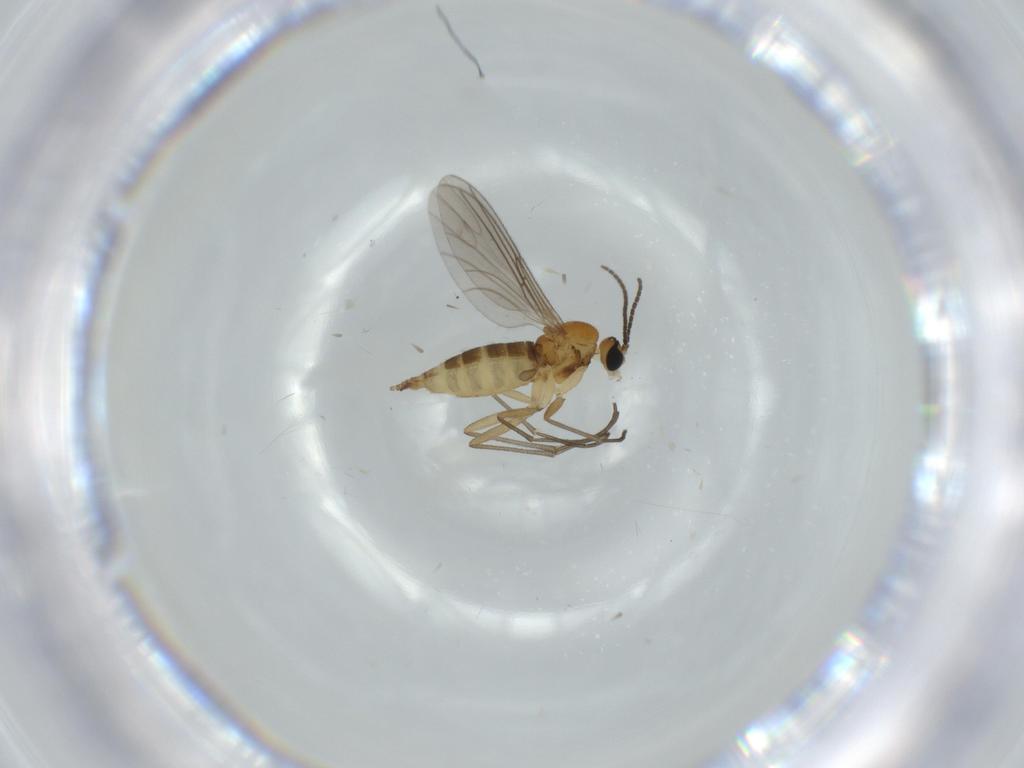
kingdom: Animalia
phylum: Arthropoda
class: Insecta
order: Diptera
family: Sciaridae
